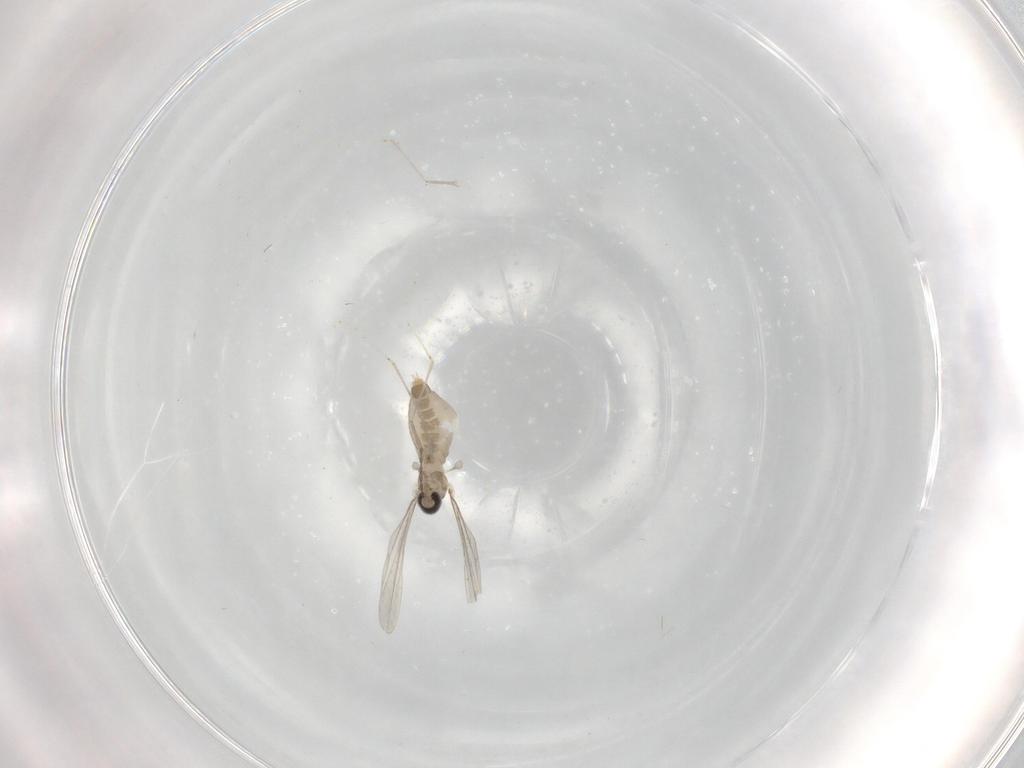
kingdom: Animalia
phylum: Arthropoda
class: Insecta
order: Diptera
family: Cecidomyiidae
